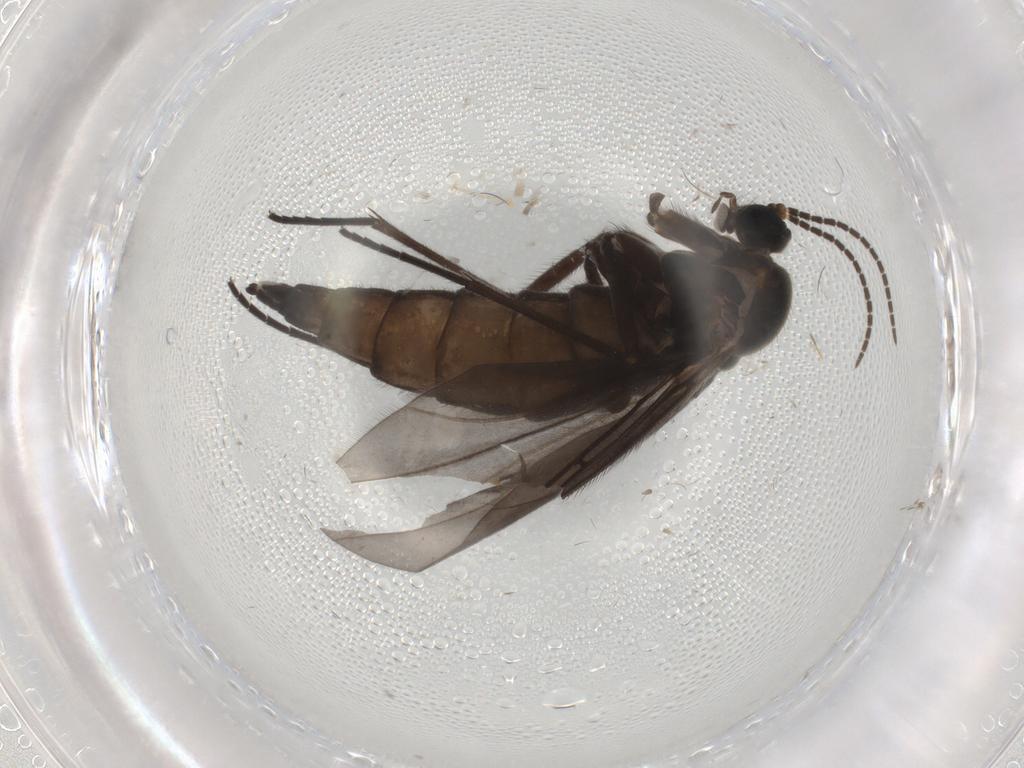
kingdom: Animalia
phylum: Arthropoda
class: Insecta
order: Diptera
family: Sciaridae
